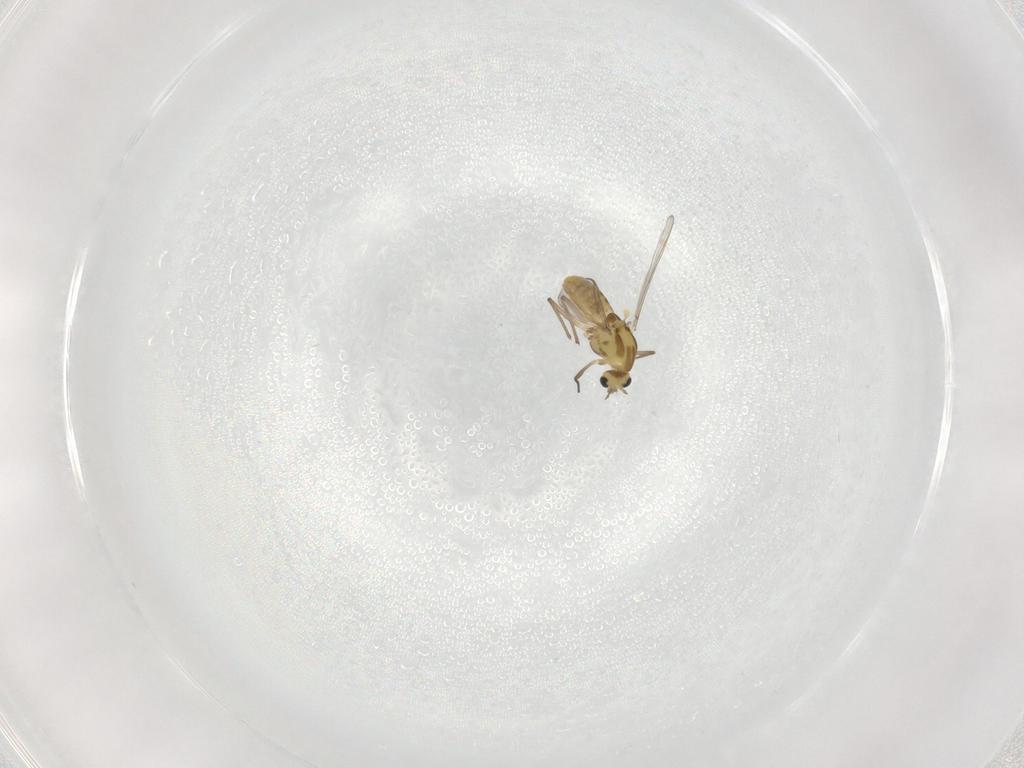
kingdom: Animalia
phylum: Arthropoda
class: Insecta
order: Diptera
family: Chironomidae
